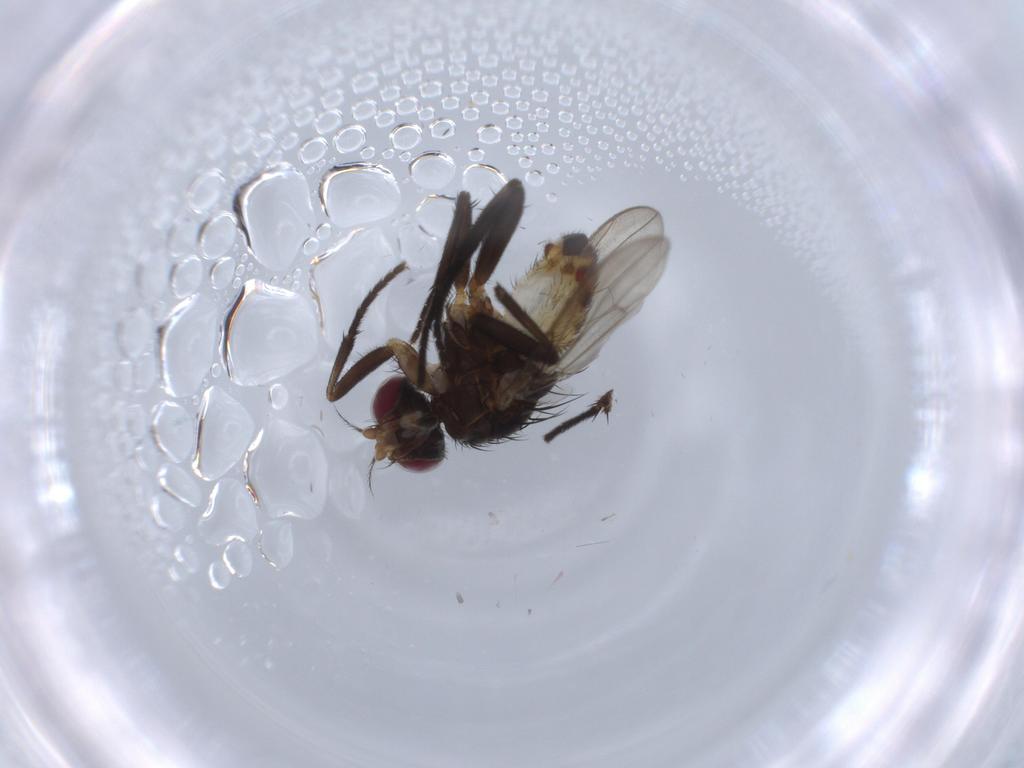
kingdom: Animalia
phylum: Arthropoda
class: Insecta
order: Diptera
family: Anthomyiidae
